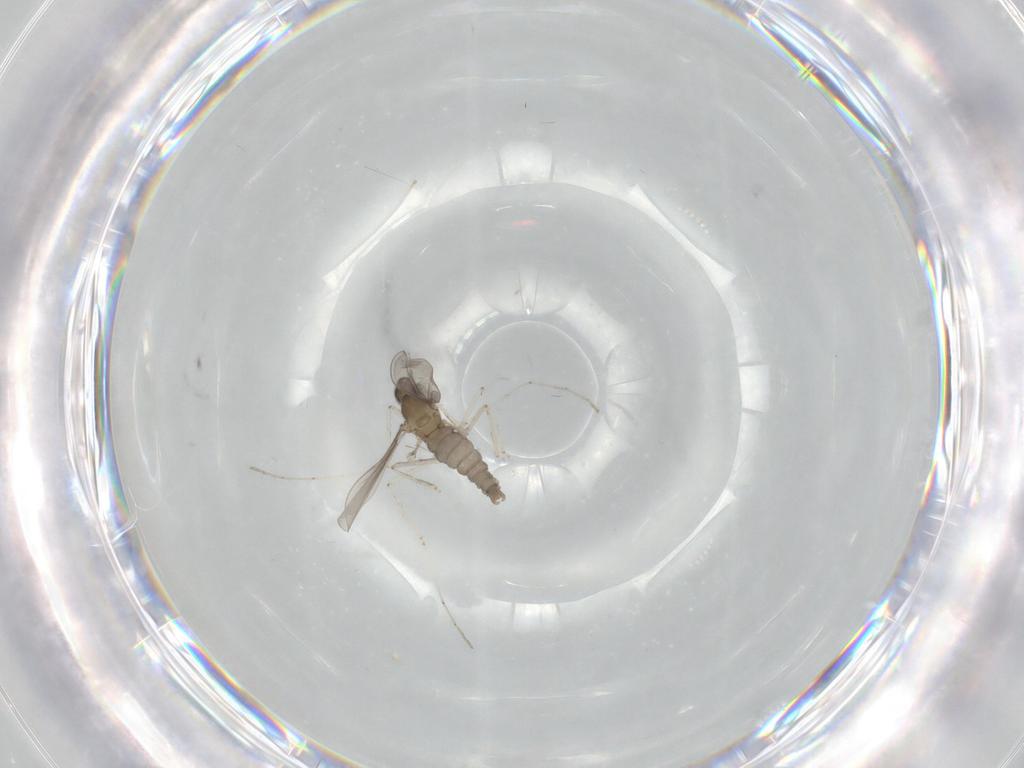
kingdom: Animalia
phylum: Arthropoda
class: Insecta
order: Diptera
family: Cecidomyiidae
